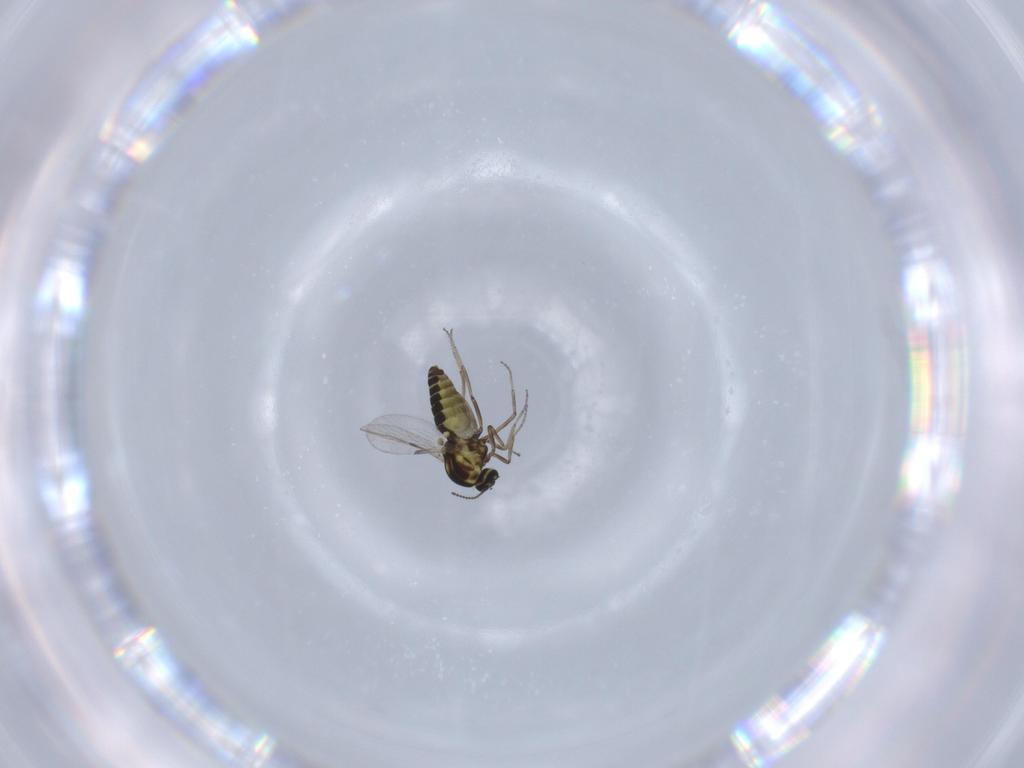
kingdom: Animalia
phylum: Arthropoda
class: Insecta
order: Diptera
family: Ceratopogonidae
